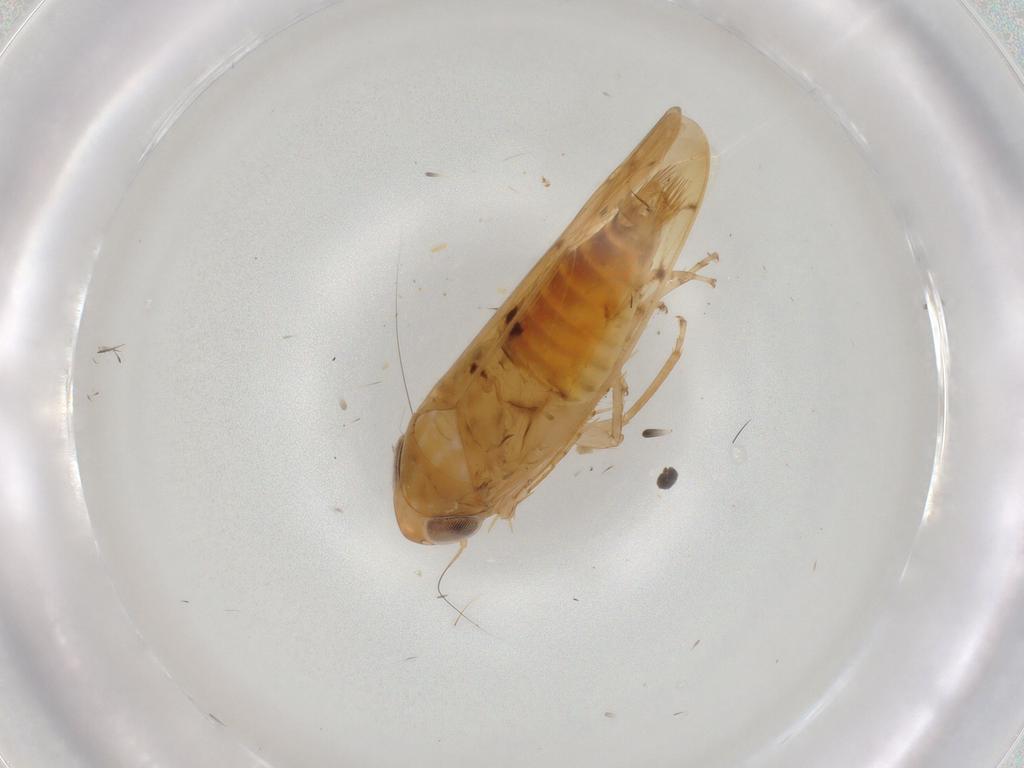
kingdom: Animalia
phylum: Arthropoda
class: Insecta
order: Hemiptera
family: Cicadellidae
